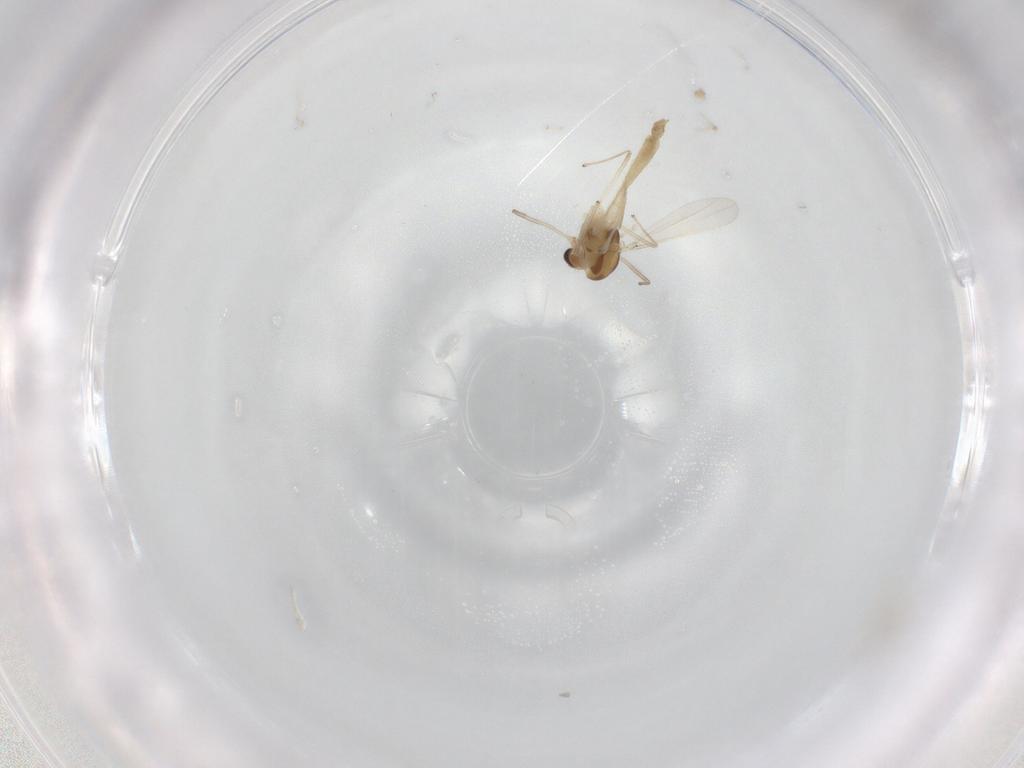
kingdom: Animalia
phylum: Arthropoda
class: Insecta
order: Diptera
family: Chironomidae
